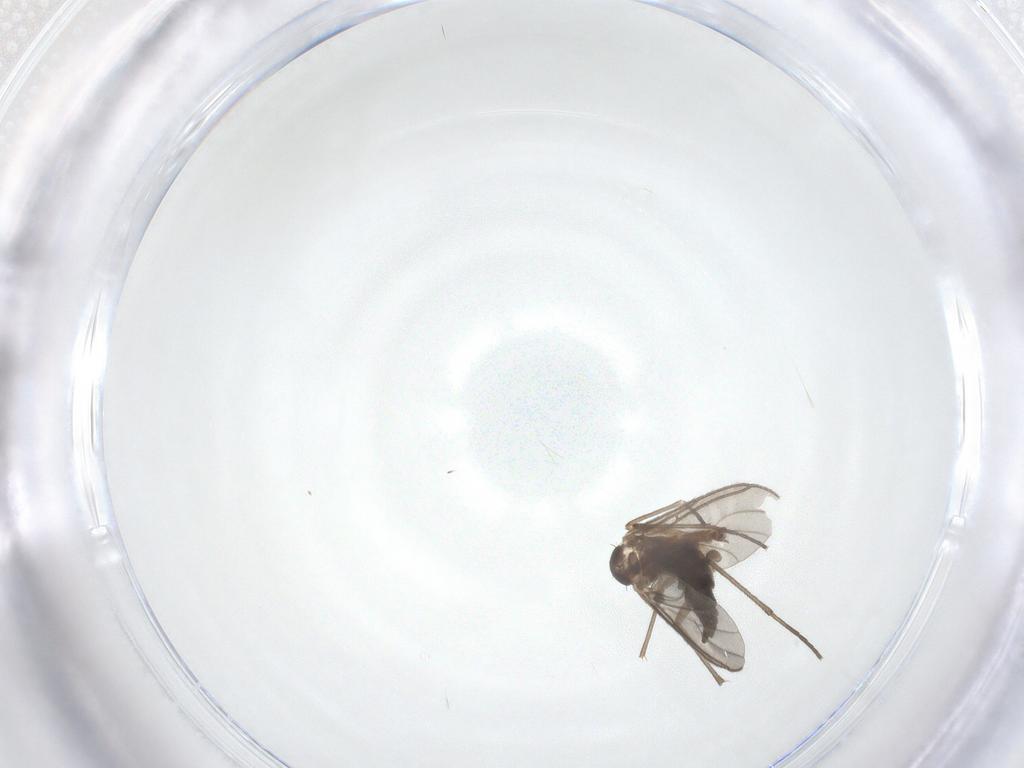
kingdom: Animalia
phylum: Arthropoda
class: Insecta
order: Diptera
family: Sciaridae
